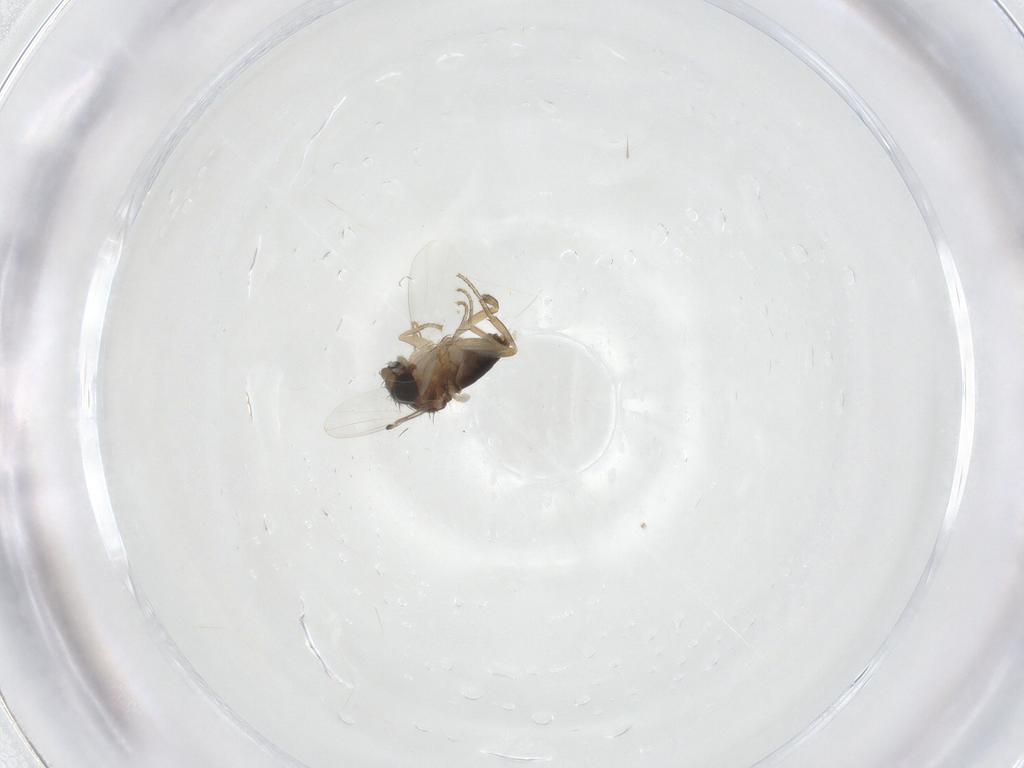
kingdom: Animalia
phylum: Arthropoda
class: Insecta
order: Diptera
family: Phoridae
